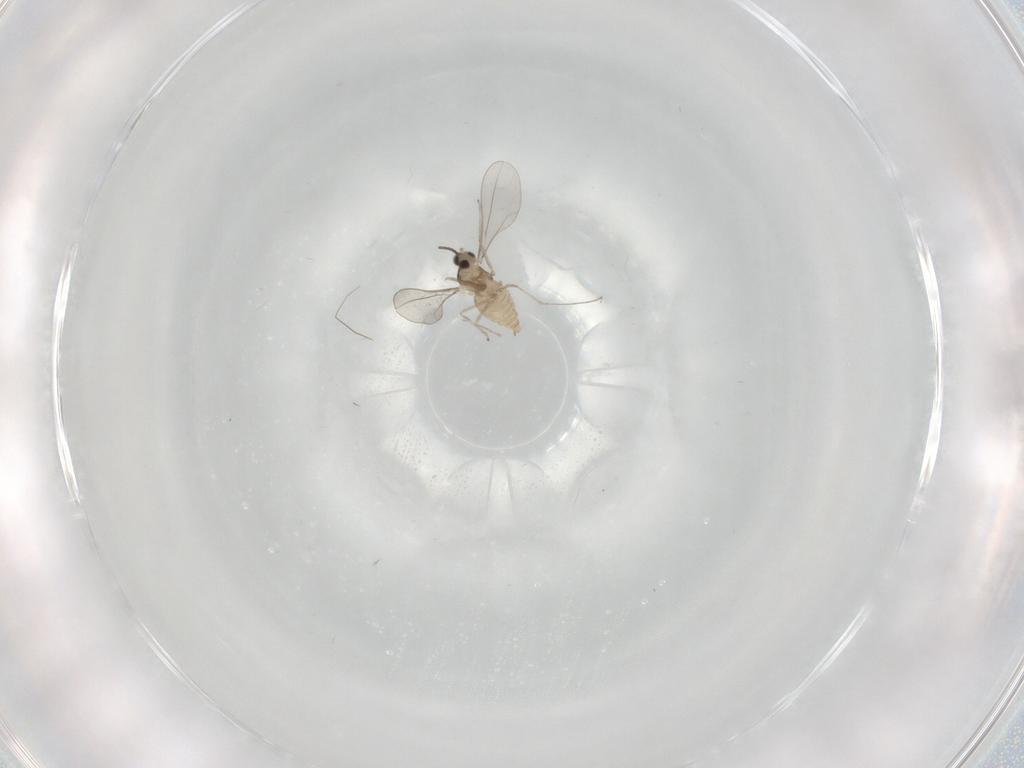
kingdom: Animalia
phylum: Arthropoda
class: Insecta
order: Diptera
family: Cecidomyiidae
